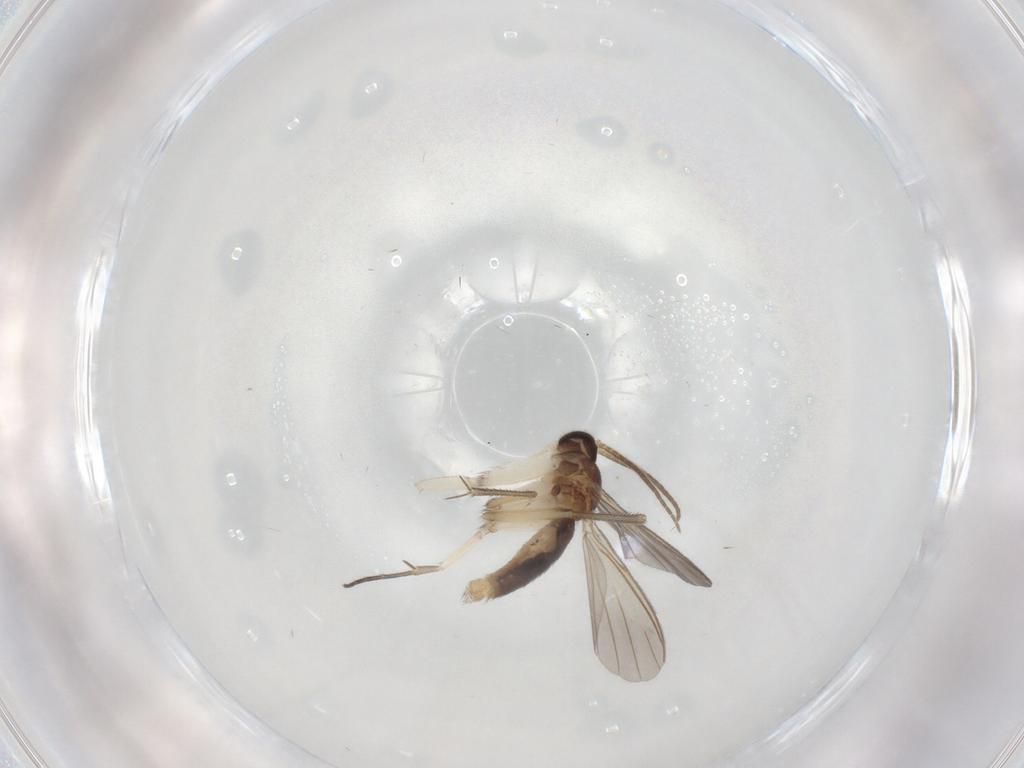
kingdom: Animalia
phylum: Arthropoda
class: Insecta
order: Diptera
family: Mycetophilidae
